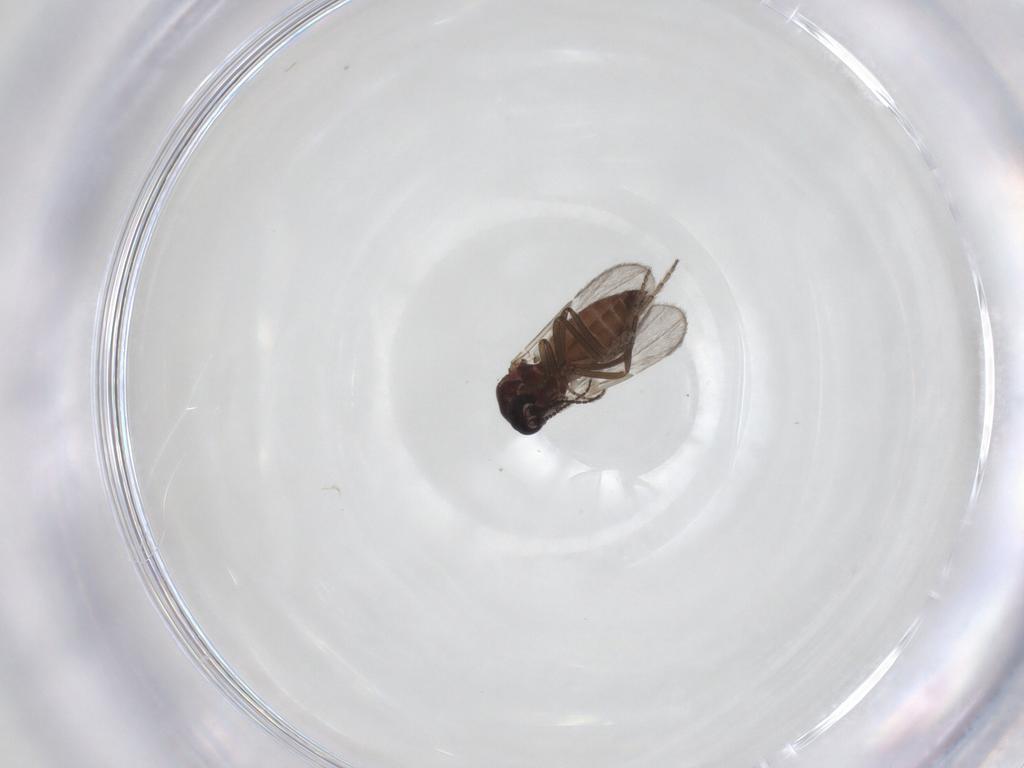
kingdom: Animalia
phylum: Arthropoda
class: Insecta
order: Diptera
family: Ceratopogonidae
